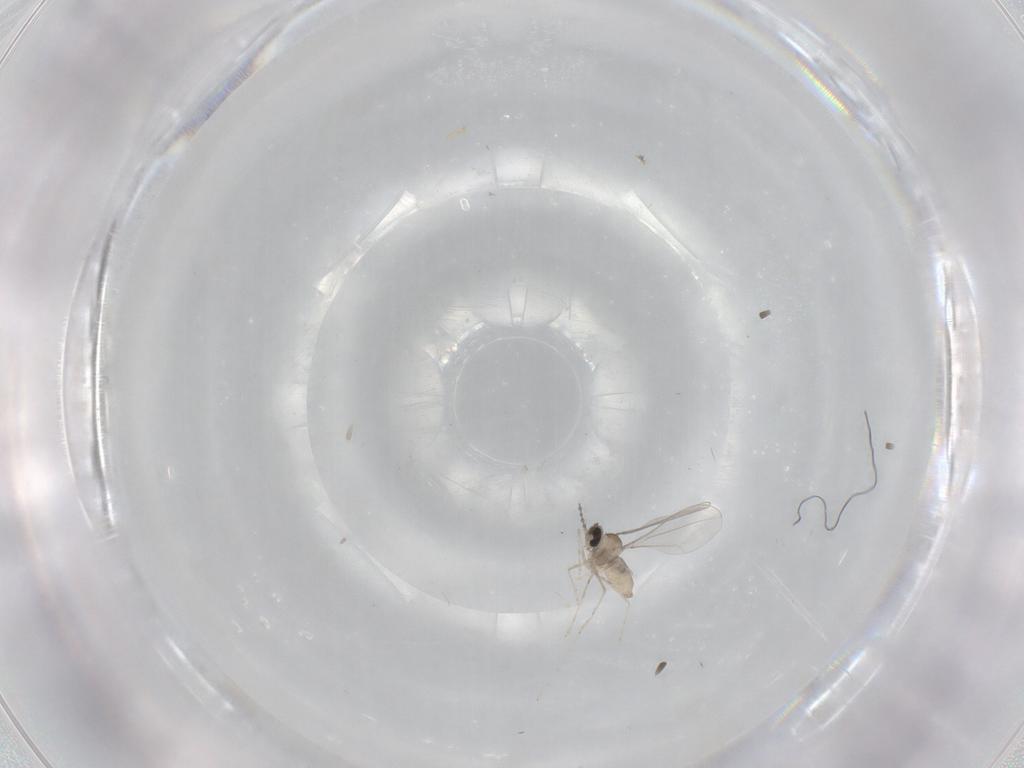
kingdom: Animalia
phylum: Arthropoda
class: Insecta
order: Diptera
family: Cecidomyiidae
